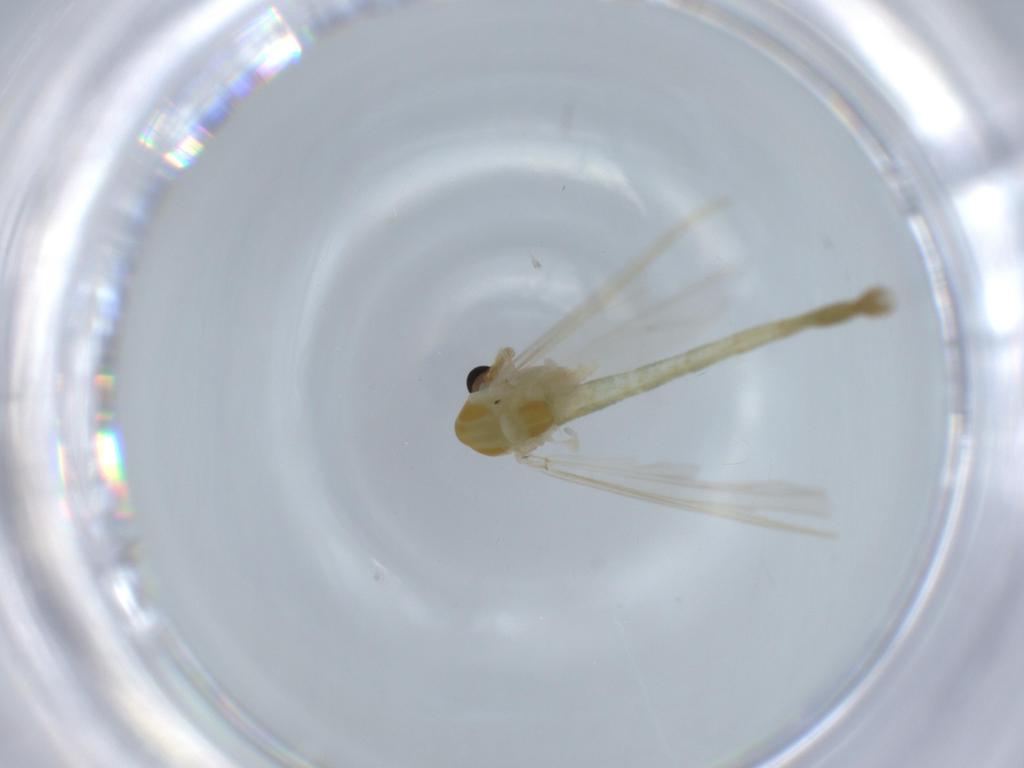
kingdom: Animalia
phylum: Arthropoda
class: Insecta
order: Diptera
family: Chironomidae
